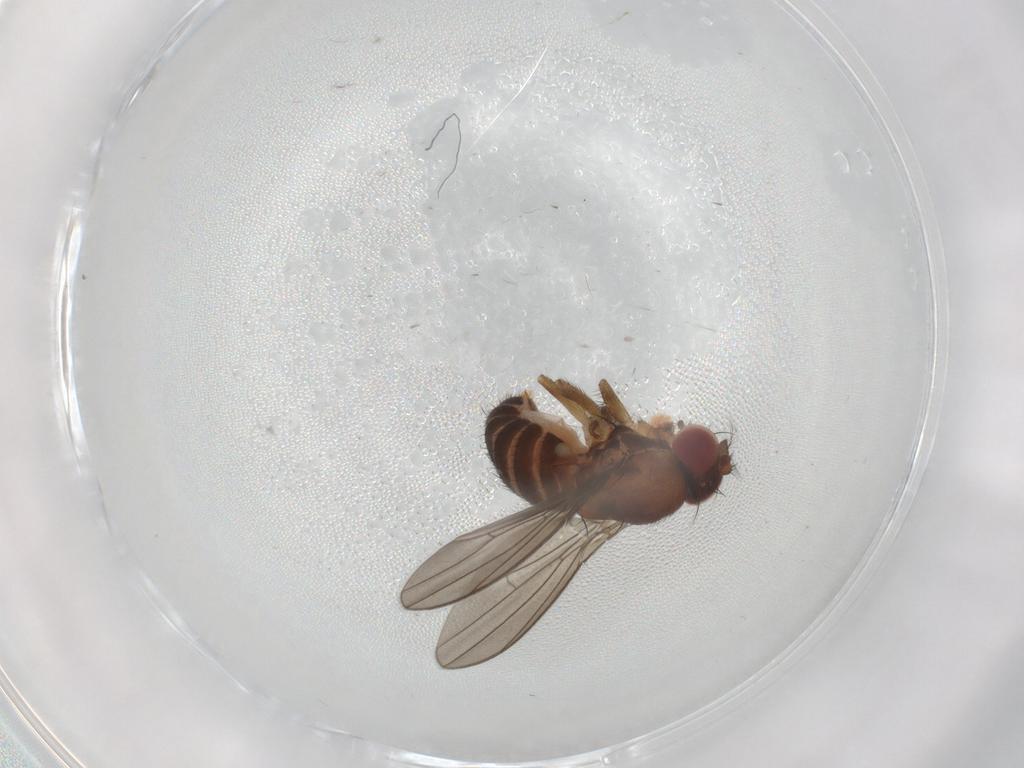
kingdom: Animalia
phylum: Arthropoda
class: Insecta
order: Diptera
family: Drosophilidae
